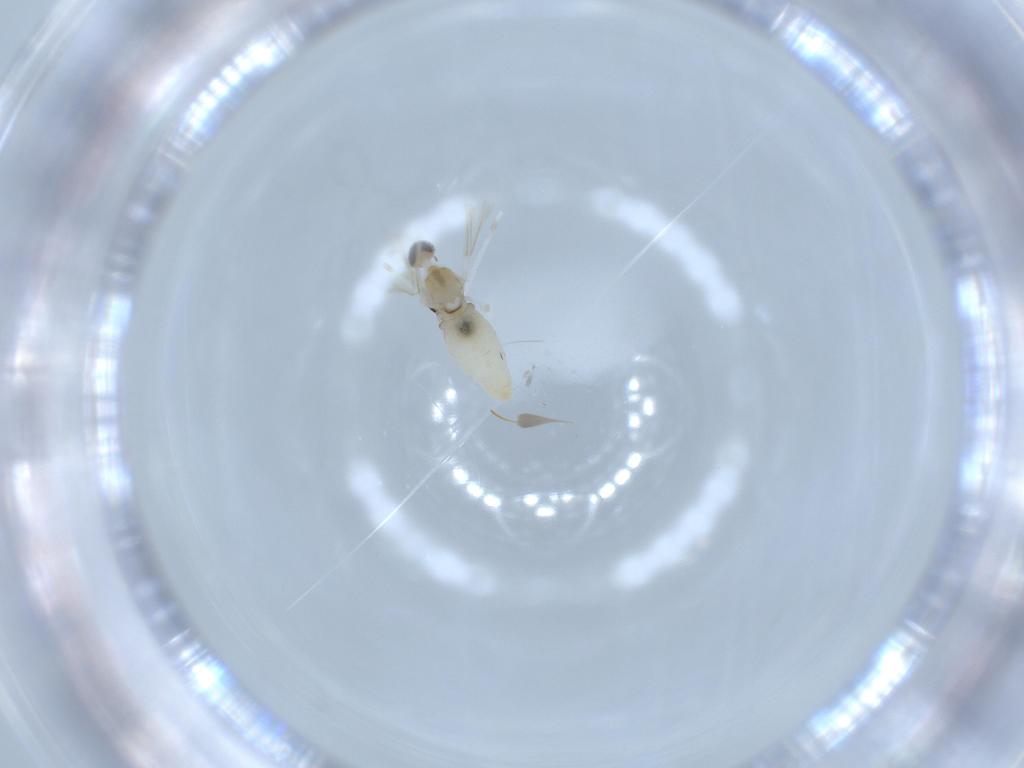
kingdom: Animalia
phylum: Arthropoda
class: Insecta
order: Diptera
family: Cecidomyiidae
